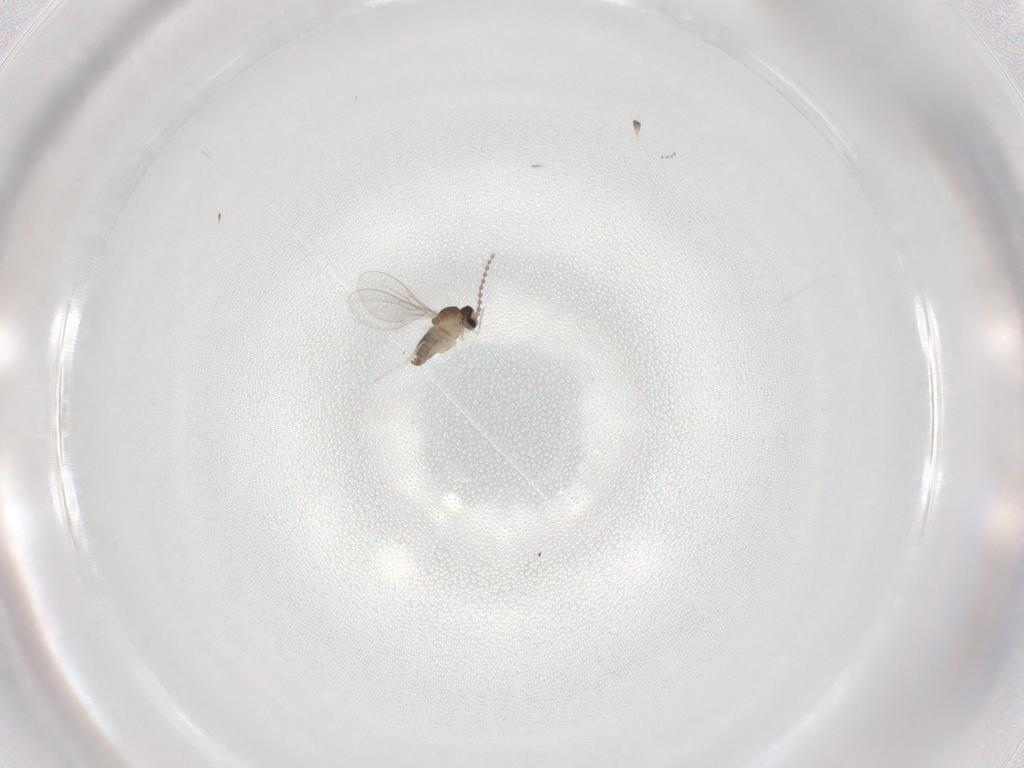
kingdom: Animalia
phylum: Arthropoda
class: Insecta
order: Diptera
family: Cecidomyiidae
